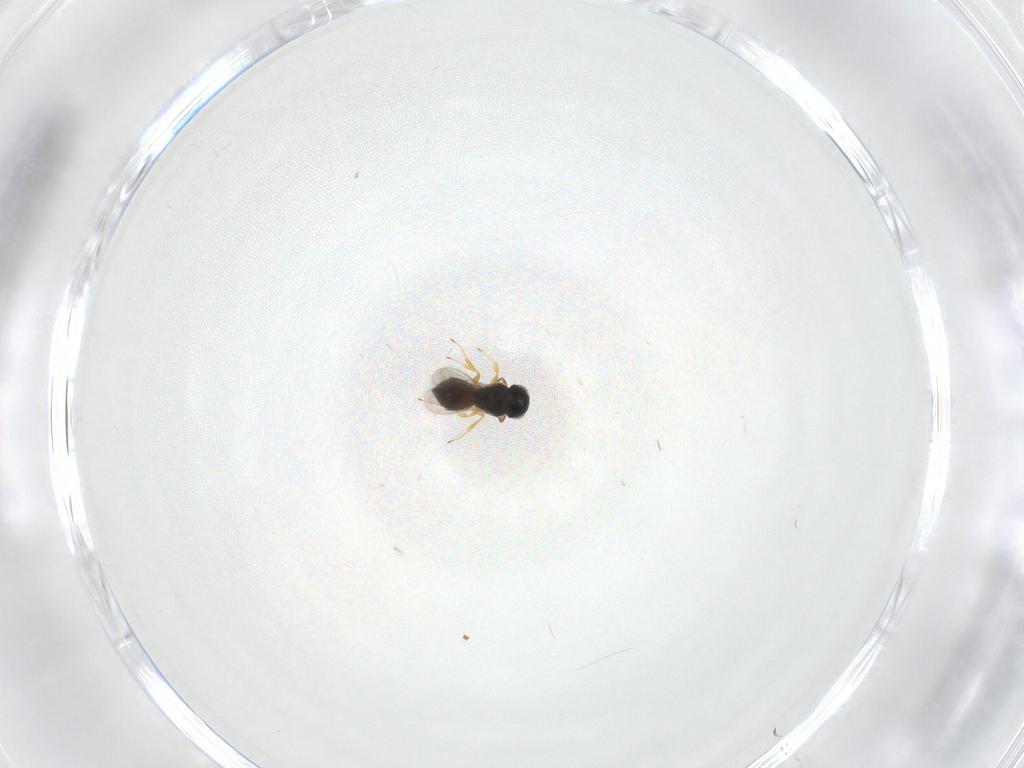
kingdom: Animalia
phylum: Arthropoda
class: Insecta
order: Hymenoptera
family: Scelionidae
